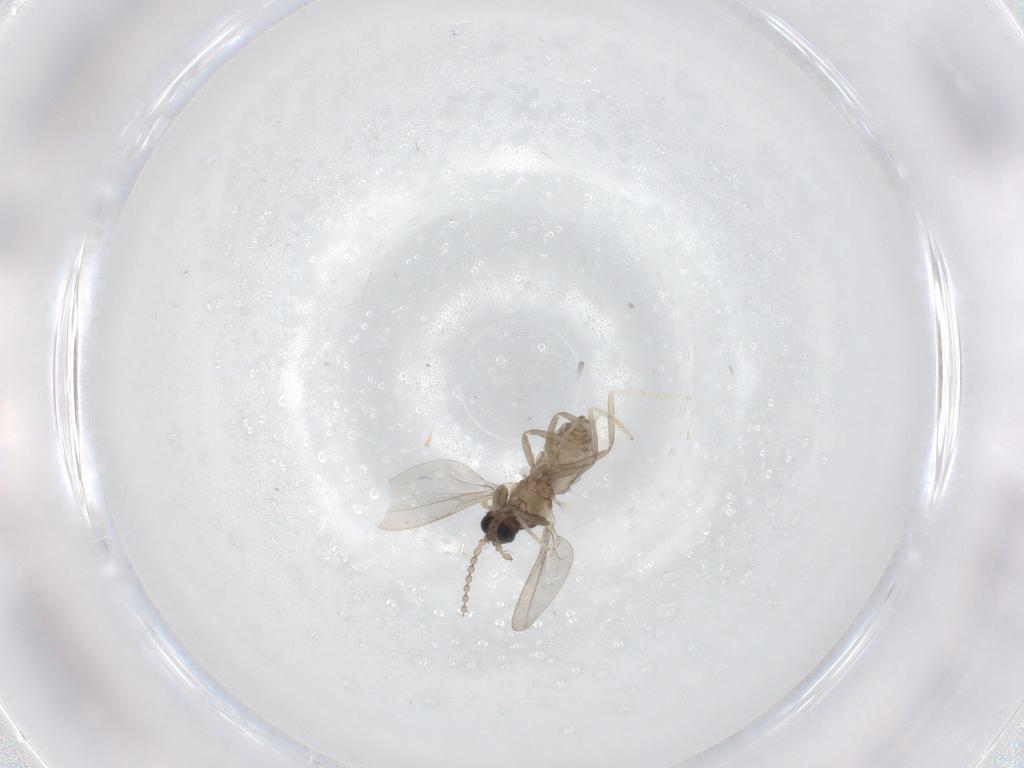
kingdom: Animalia
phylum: Arthropoda
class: Insecta
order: Diptera
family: Cecidomyiidae
